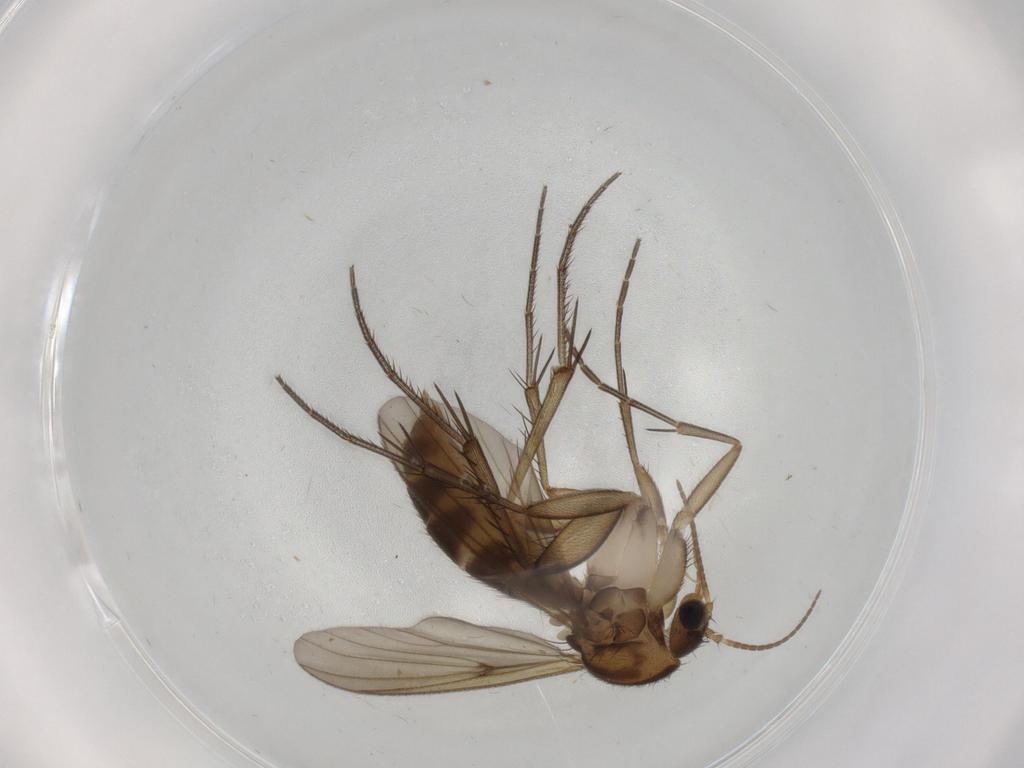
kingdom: Animalia
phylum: Arthropoda
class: Insecta
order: Diptera
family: Mycetophilidae
